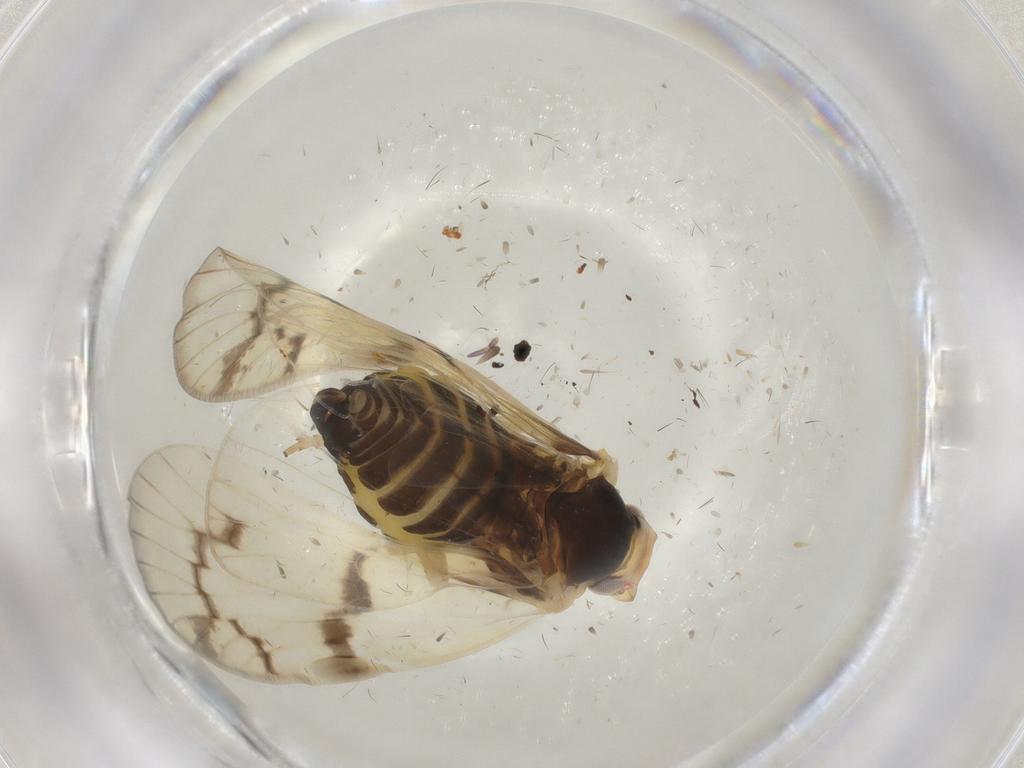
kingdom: Animalia
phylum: Arthropoda
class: Insecta
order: Hemiptera
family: Cixiidae
